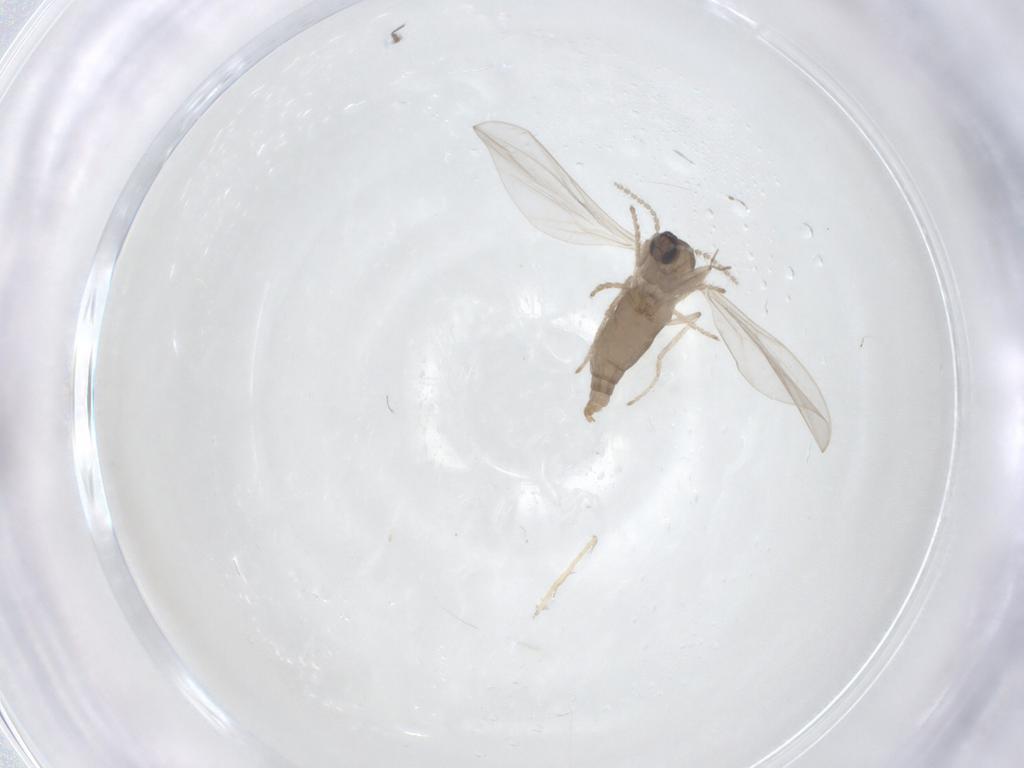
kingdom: Animalia
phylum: Arthropoda
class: Insecta
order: Diptera
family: Cecidomyiidae
